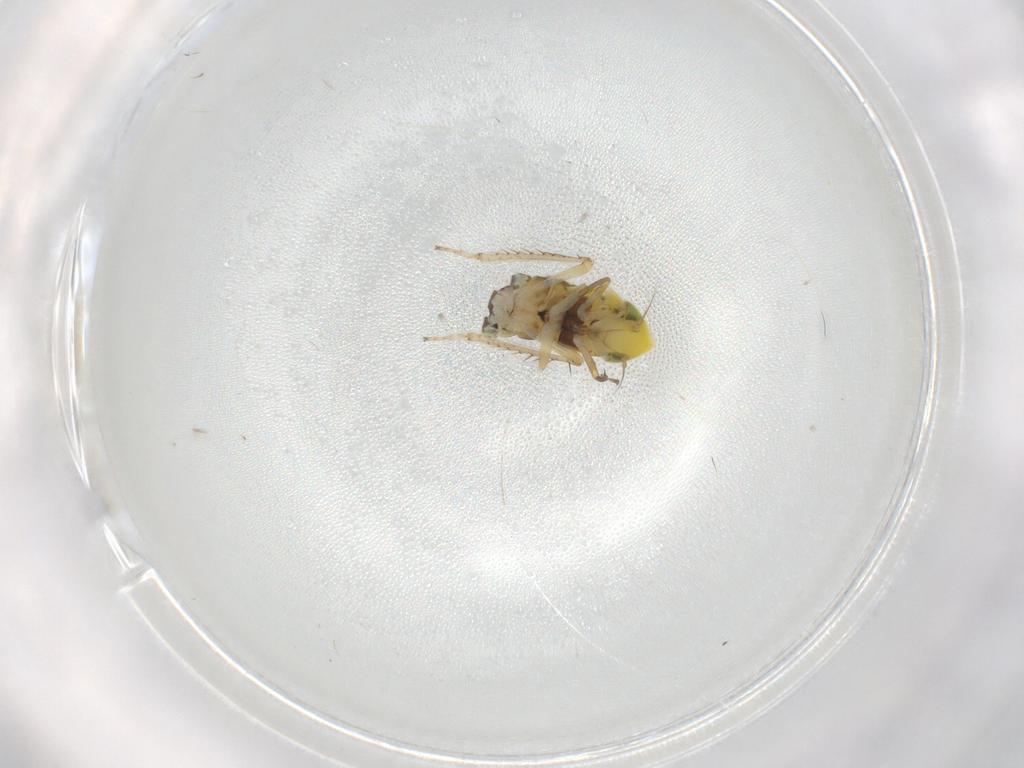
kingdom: Animalia
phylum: Arthropoda
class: Insecta
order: Hemiptera
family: Cicadellidae
